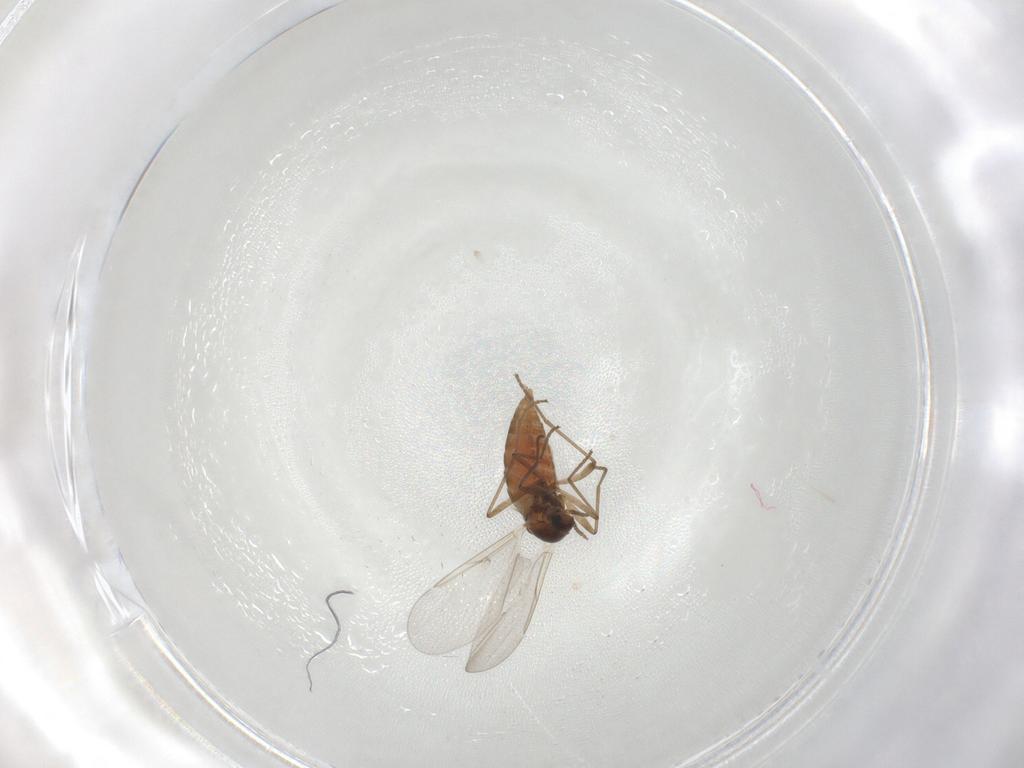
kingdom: Animalia
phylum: Arthropoda
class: Insecta
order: Diptera
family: Cecidomyiidae
